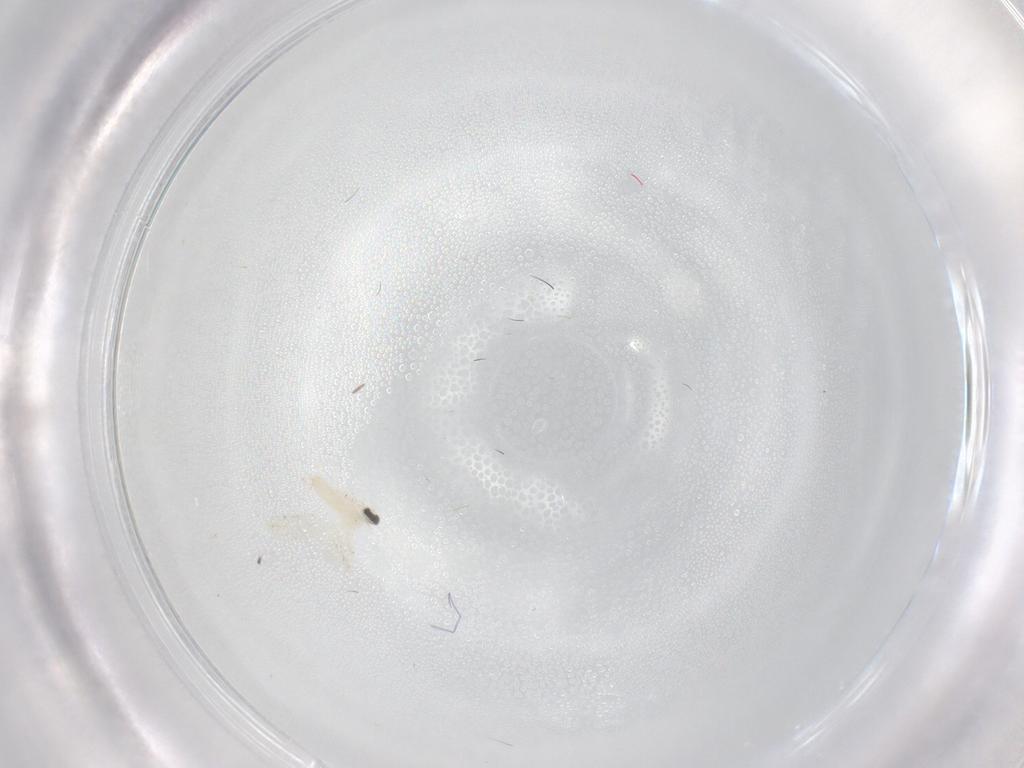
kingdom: Animalia
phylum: Arthropoda
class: Insecta
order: Diptera
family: Cecidomyiidae
